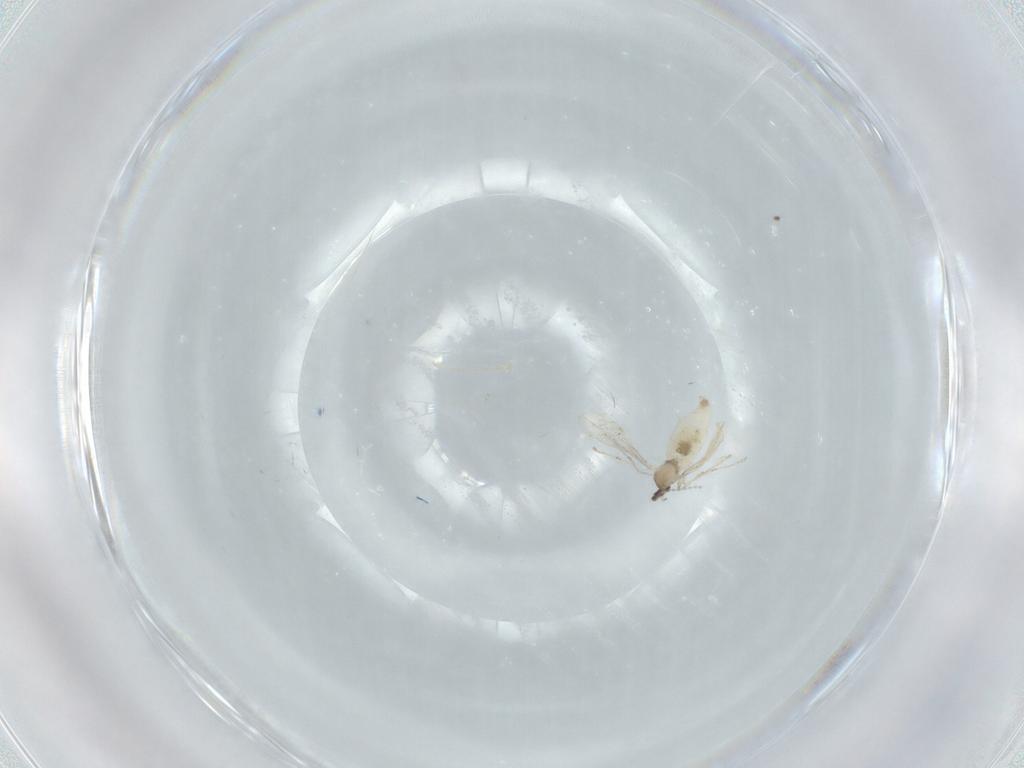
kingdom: Animalia
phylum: Arthropoda
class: Insecta
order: Diptera
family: Cecidomyiidae
